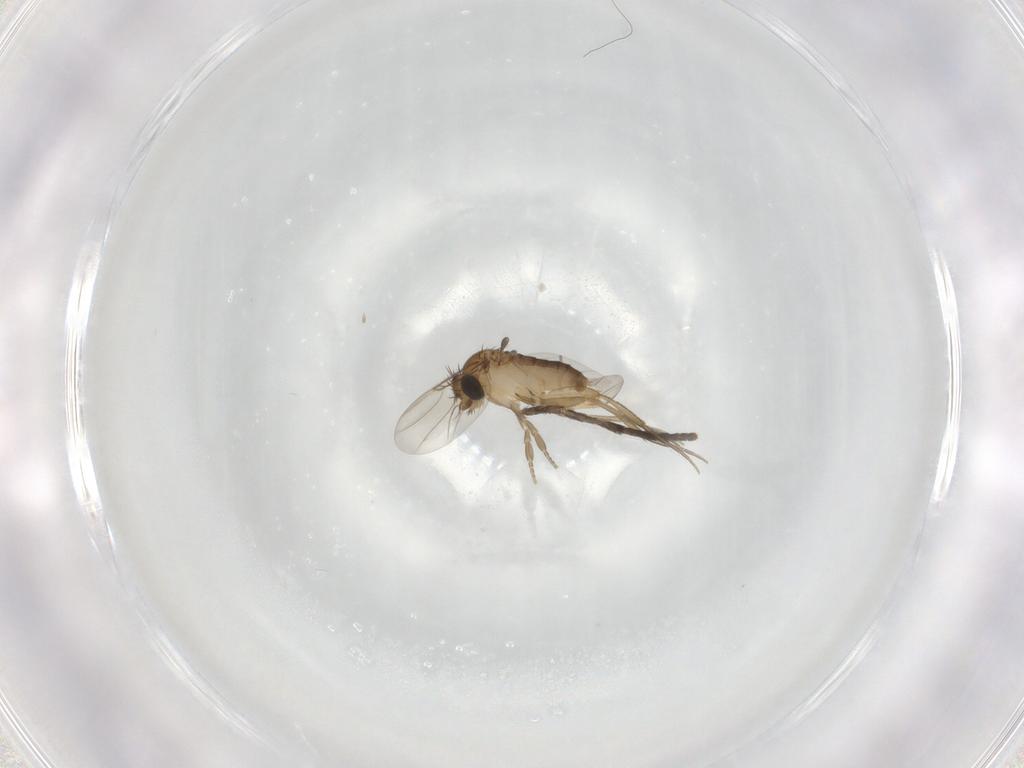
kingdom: Animalia
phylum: Arthropoda
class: Insecta
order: Diptera
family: Phoridae
